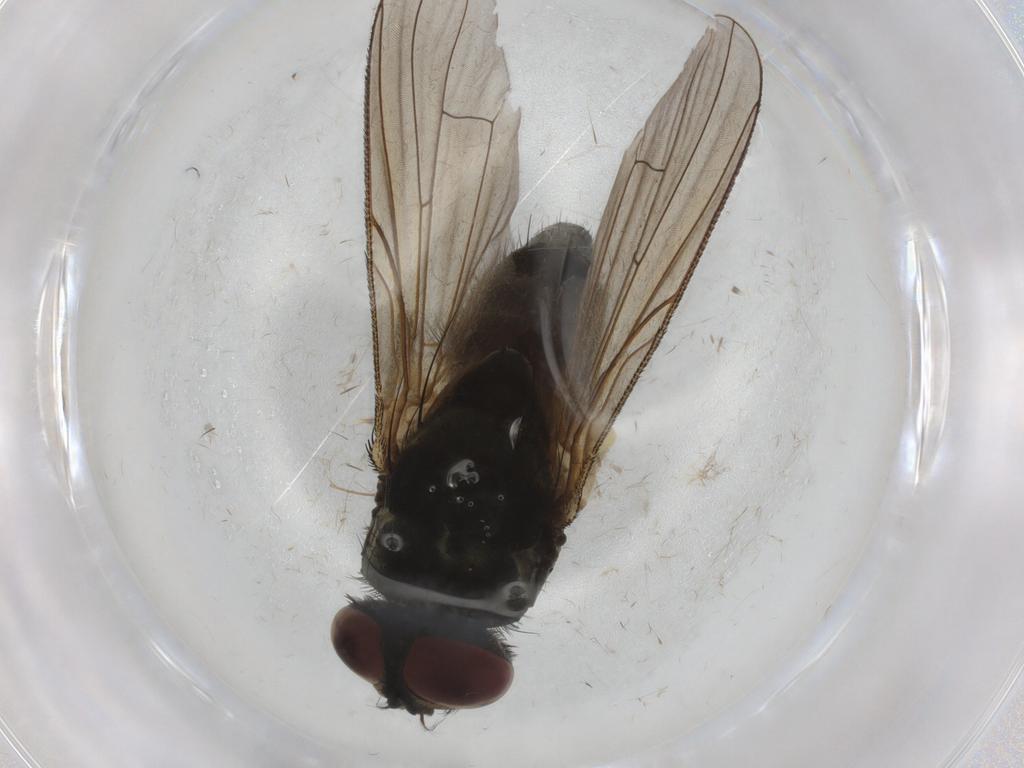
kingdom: Animalia
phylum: Arthropoda
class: Insecta
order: Diptera
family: Muscidae
